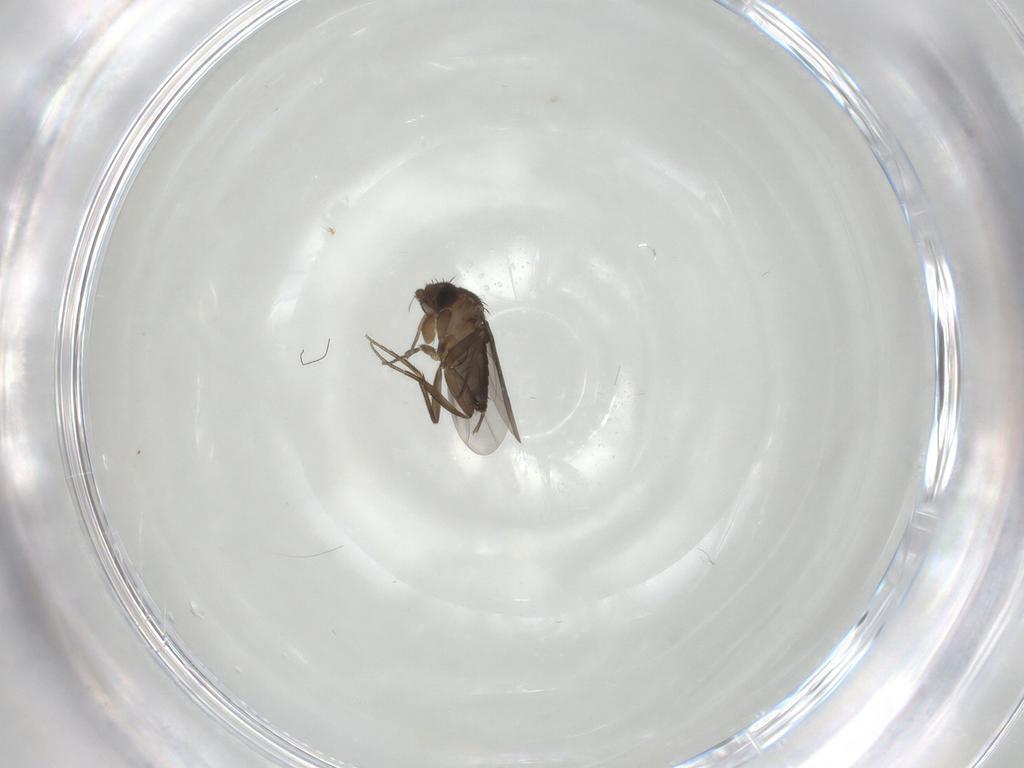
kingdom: Animalia
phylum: Arthropoda
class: Insecta
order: Diptera
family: Phoridae
